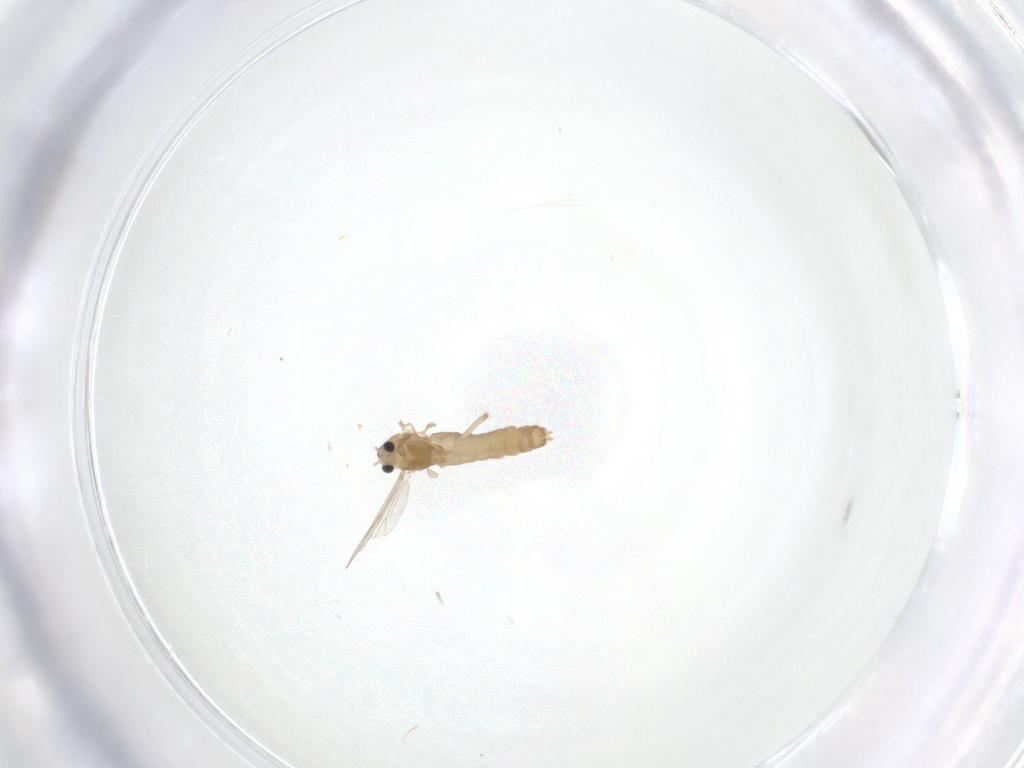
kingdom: Animalia
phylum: Arthropoda
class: Insecta
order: Diptera
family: Chironomidae
